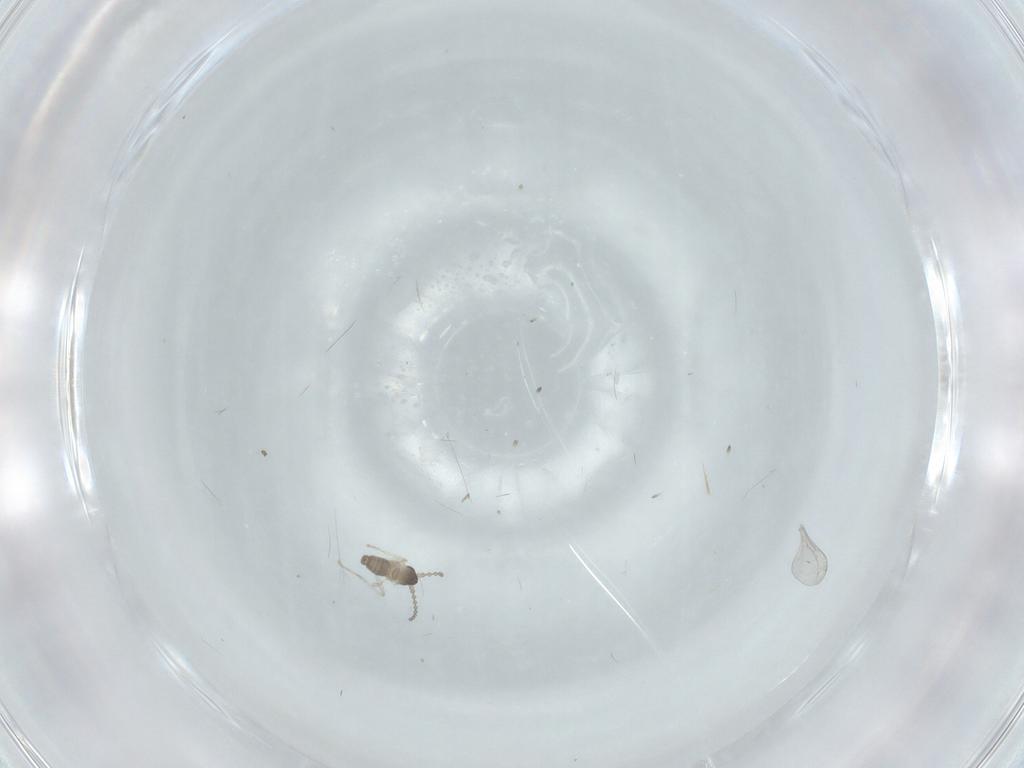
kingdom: Animalia
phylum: Arthropoda
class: Insecta
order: Diptera
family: Cecidomyiidae
